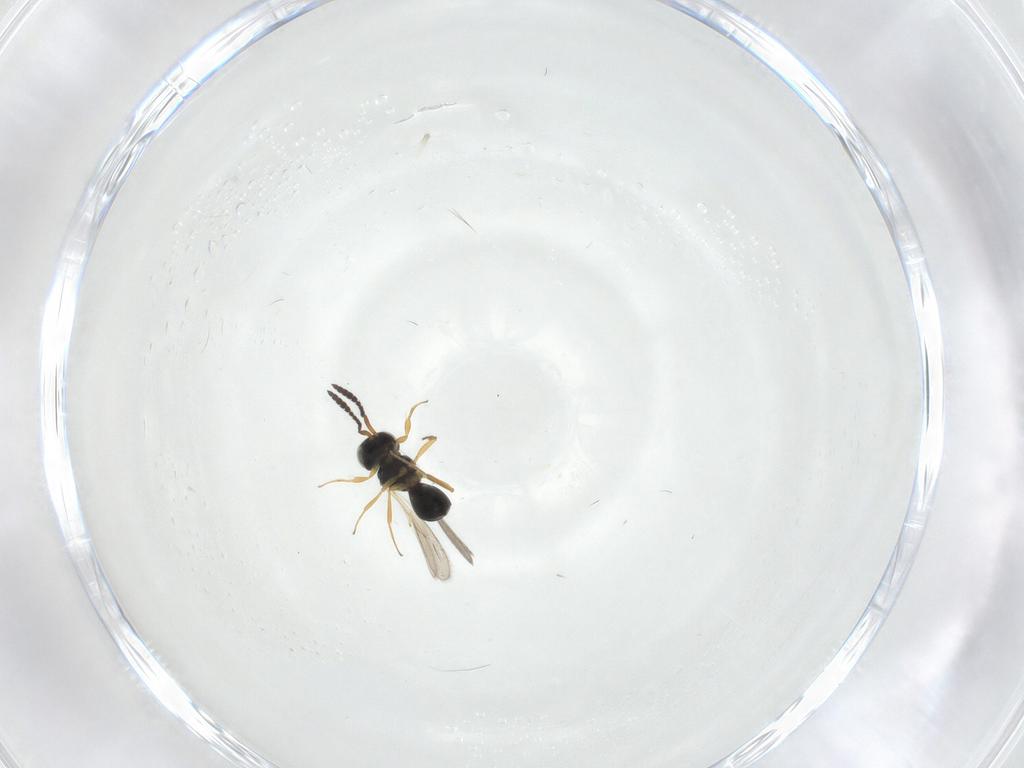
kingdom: Animalia
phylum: Arthropoda
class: Insecta
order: Hymenoptera
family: Scelionidae
